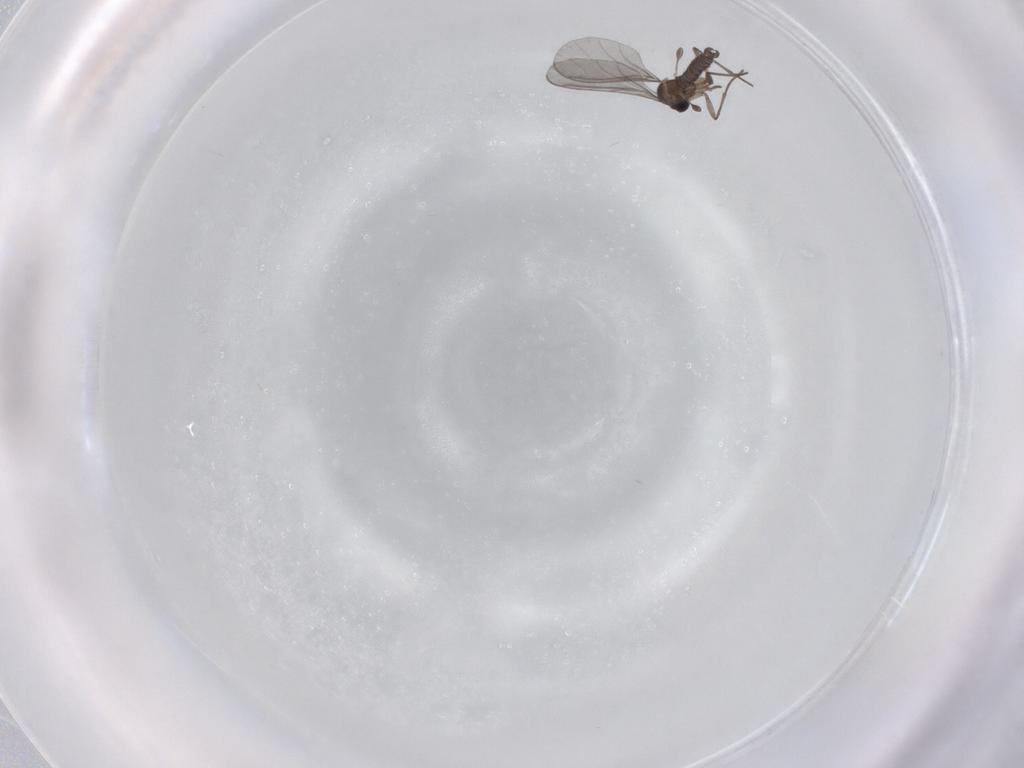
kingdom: Animalia
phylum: Arthropoda
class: Insecta
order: Diptera
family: Cecidomyiidae
